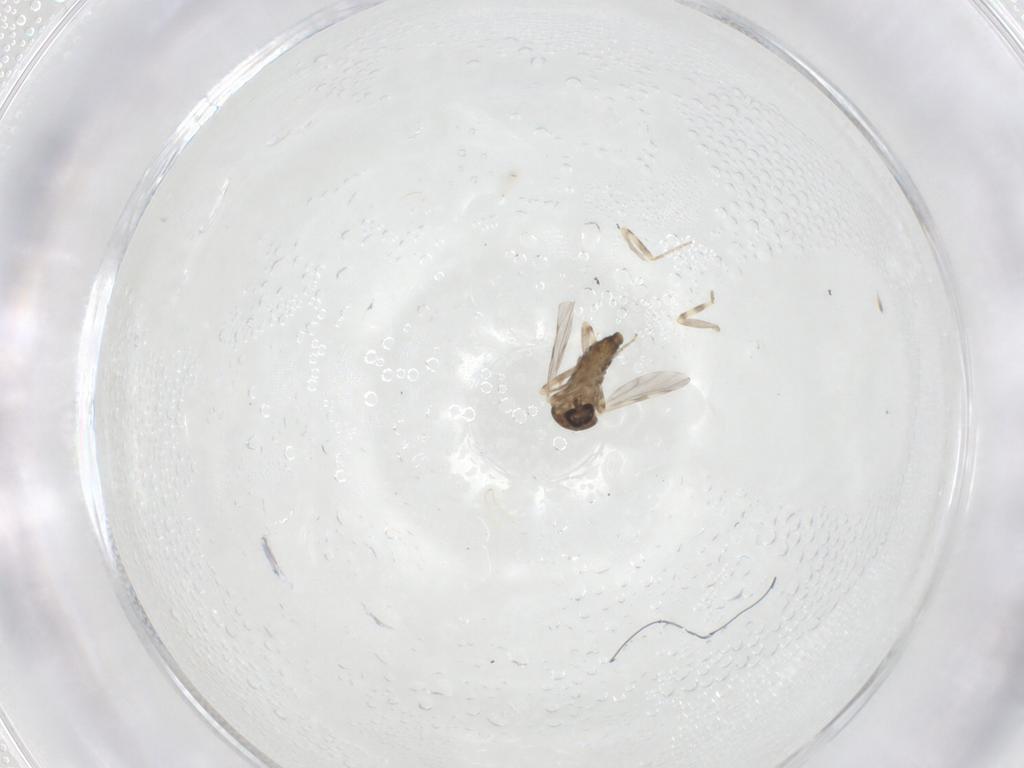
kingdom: Animalia
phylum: Arthropoda
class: Insecta
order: Diptera
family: Ceratopogonidae
